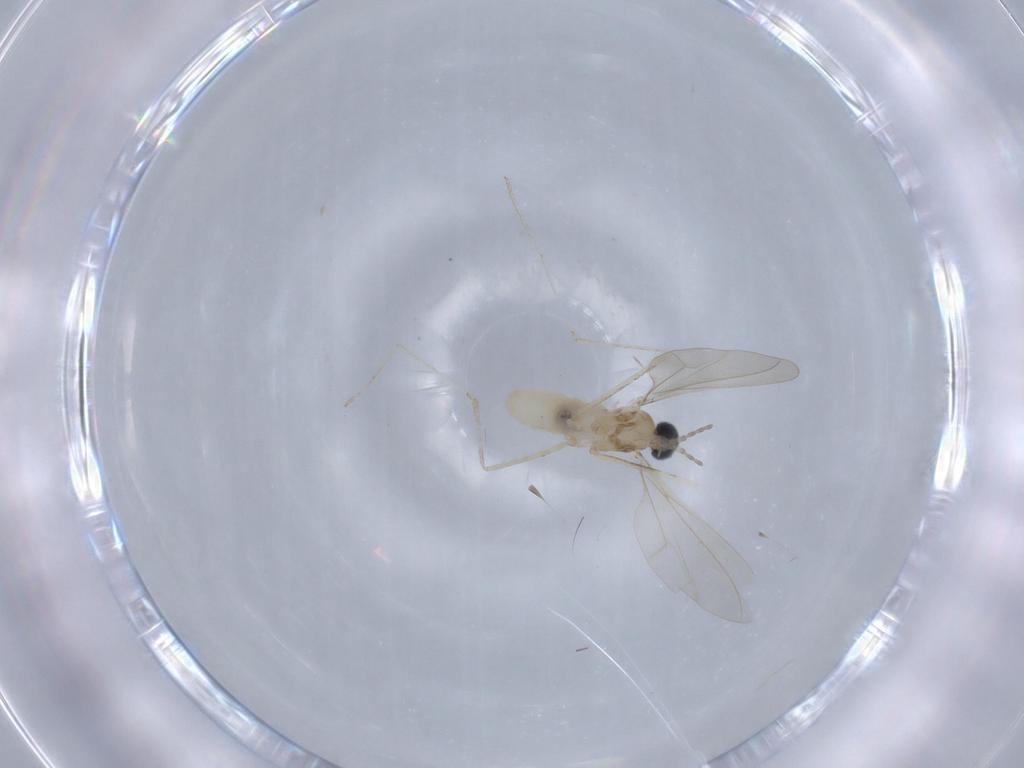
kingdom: Animalia
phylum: Arthropoda
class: Insecta
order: Diptera
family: Cecidomyiidae
